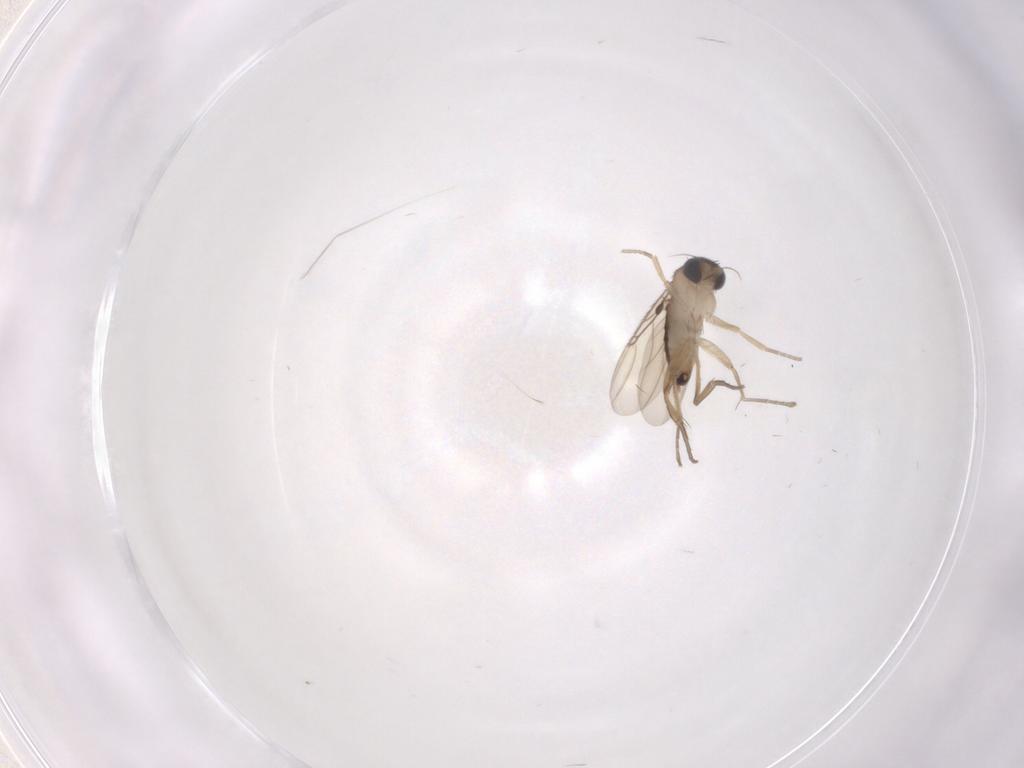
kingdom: Animalia
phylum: Arthropoda
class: Insecta
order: Diptera
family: Phoridae
